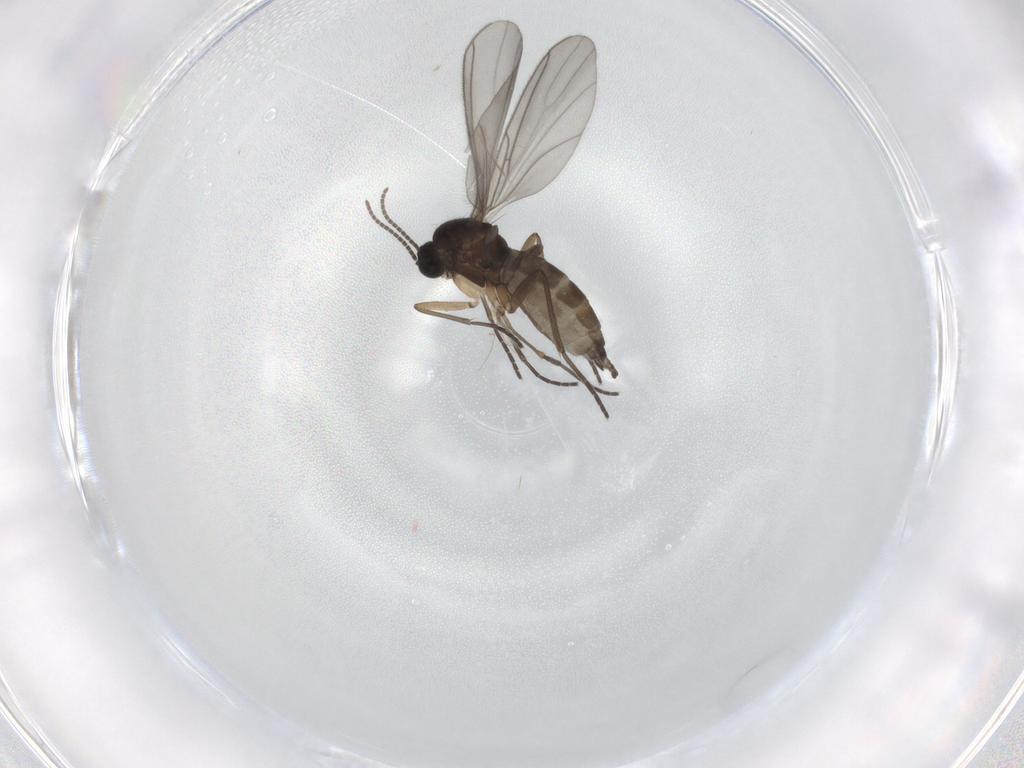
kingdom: Animalia
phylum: Arthropoda
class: Insecta
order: Diptera
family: Sciaridae
